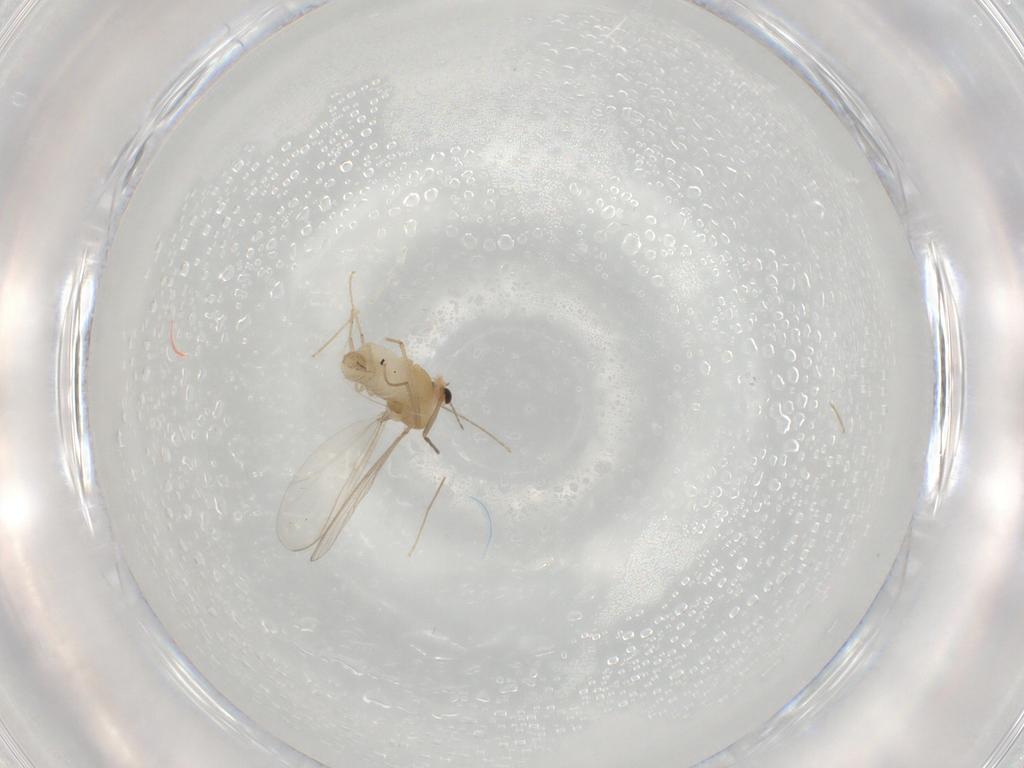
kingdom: Animalia
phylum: Arthropoda
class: Insecta
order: Diptera
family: Chironomidae
